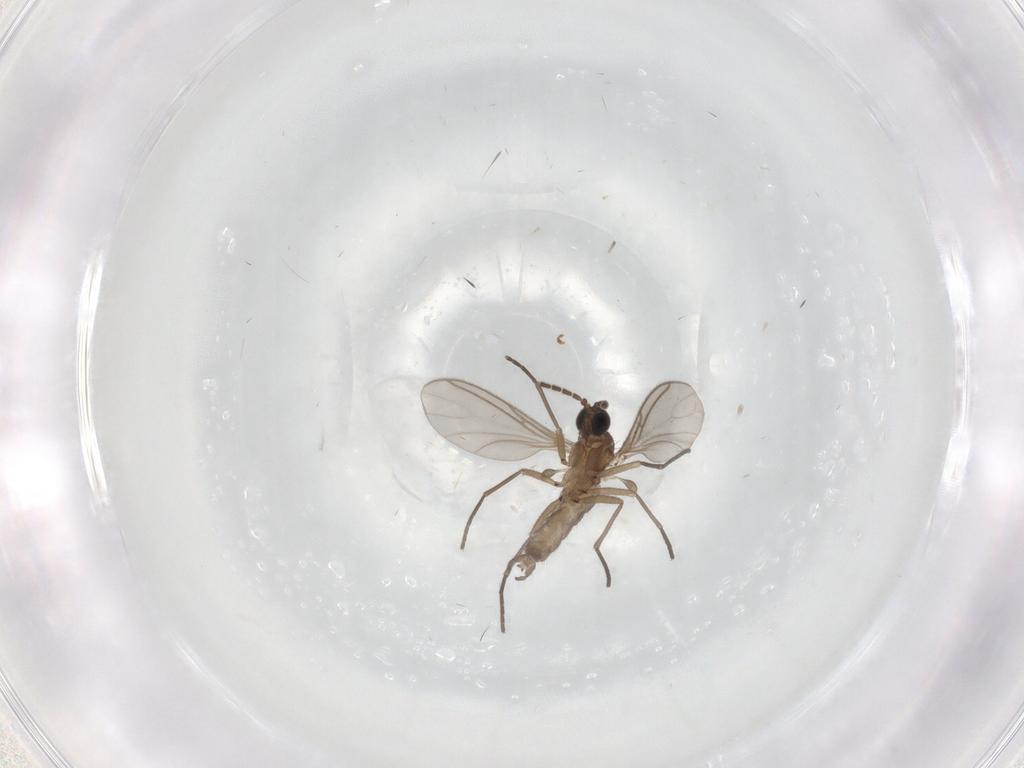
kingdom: Animalia
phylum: Arthropoda
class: Insecta
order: Diptera
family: Psychodidae
